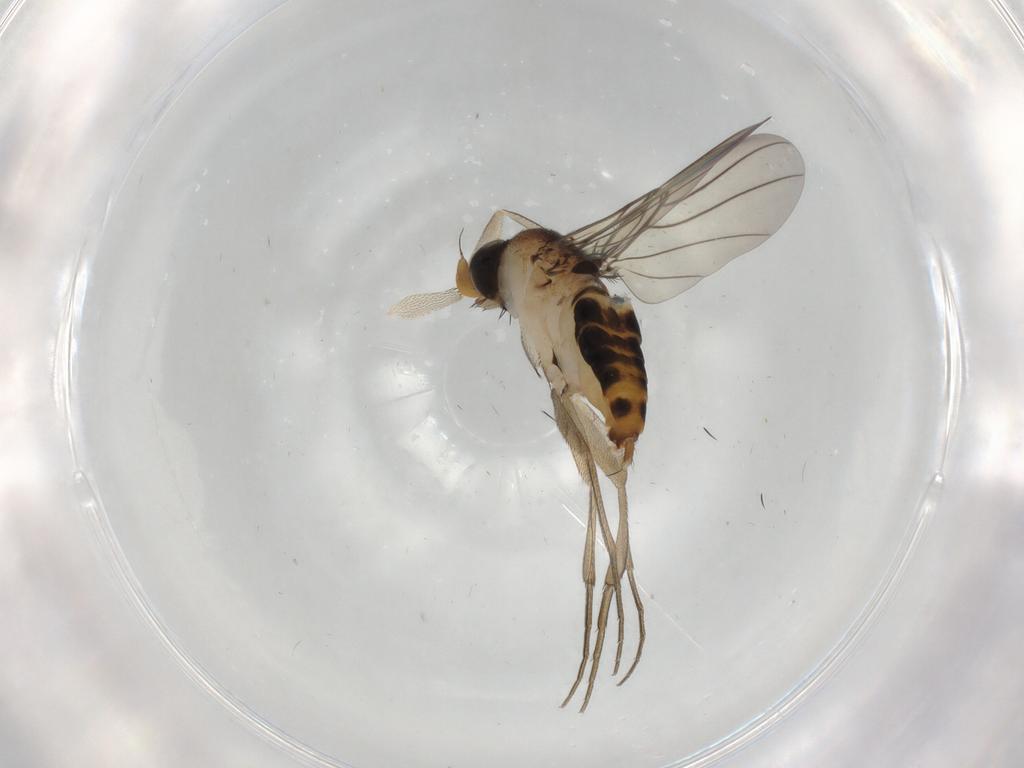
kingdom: Animalia
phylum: Arthropoda
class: Insecta
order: Diptera
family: Phoridae
